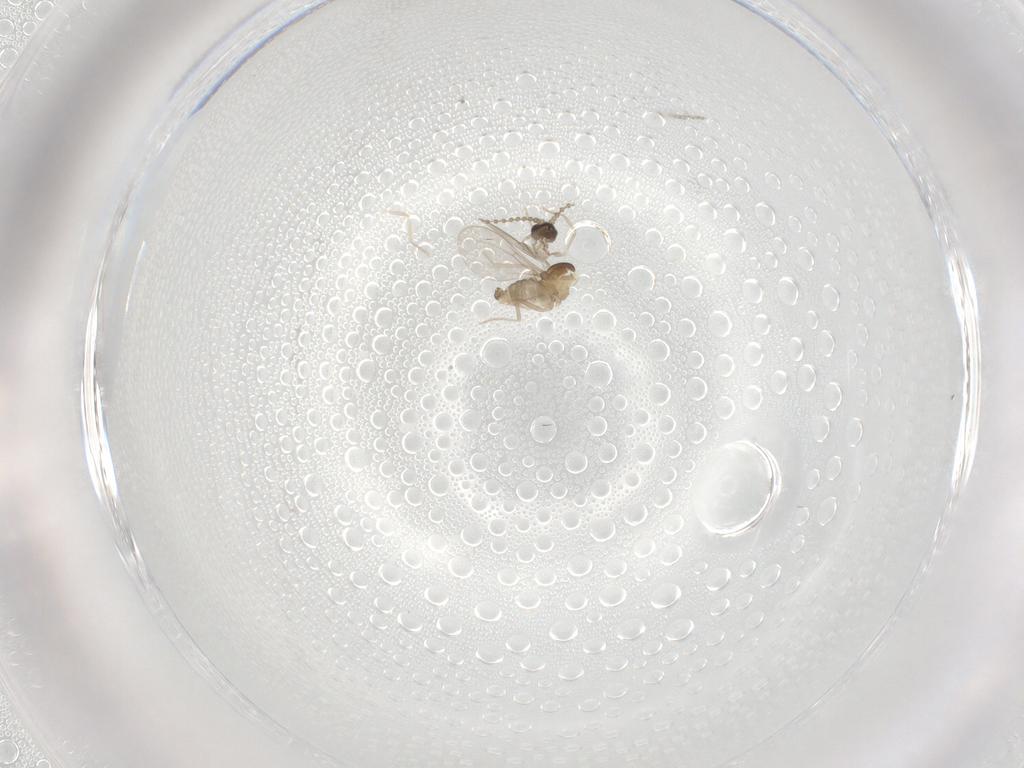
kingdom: Animalia
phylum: Arthropoda
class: Insecta
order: Diptera
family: Cecidomyiidae
